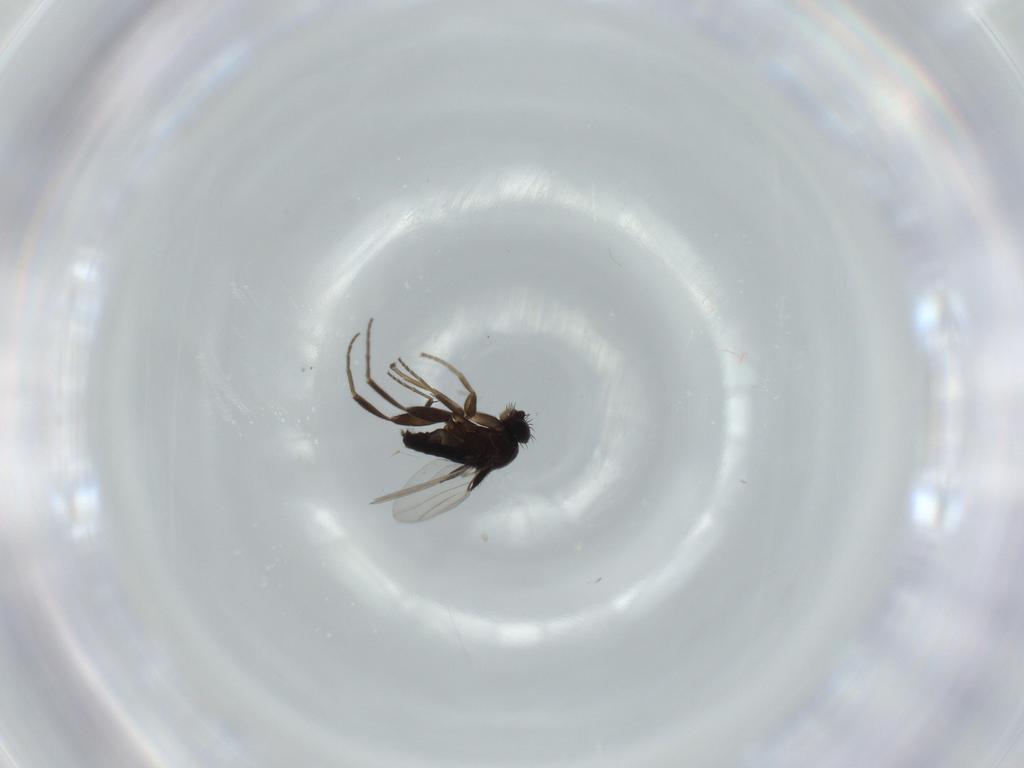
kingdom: Animalia
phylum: Arthropoda
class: Insecta
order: Diptera
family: Phoridae
